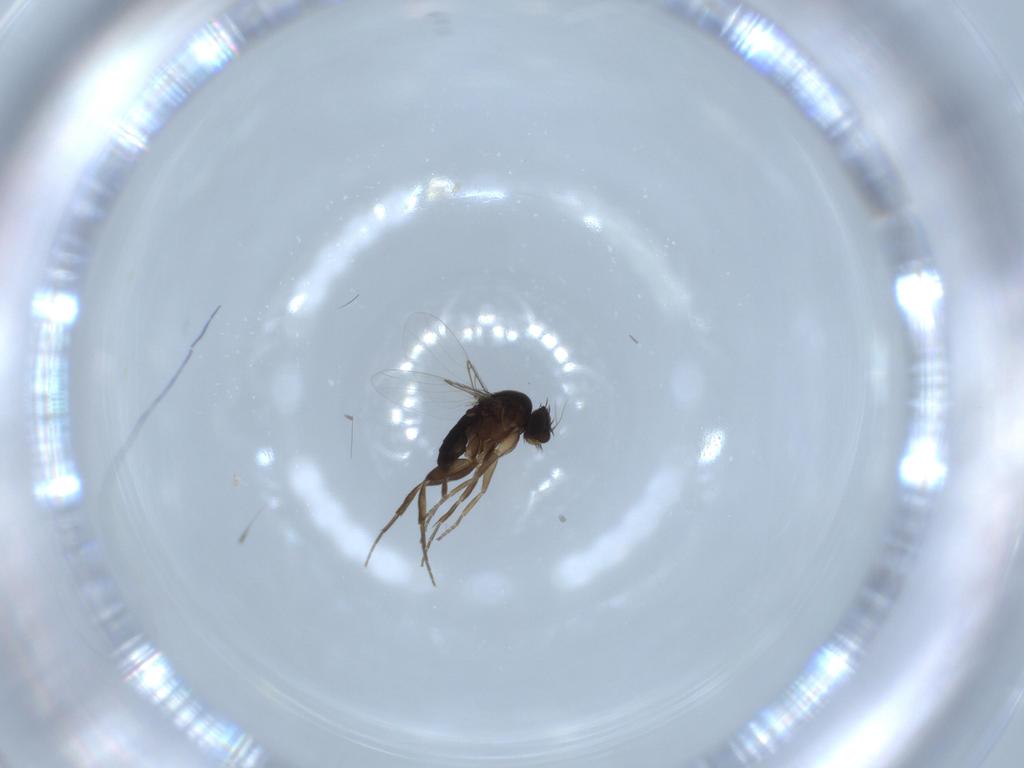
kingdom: Animalia
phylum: Arthropoda
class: Insecta
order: Diptera
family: Phoridae
